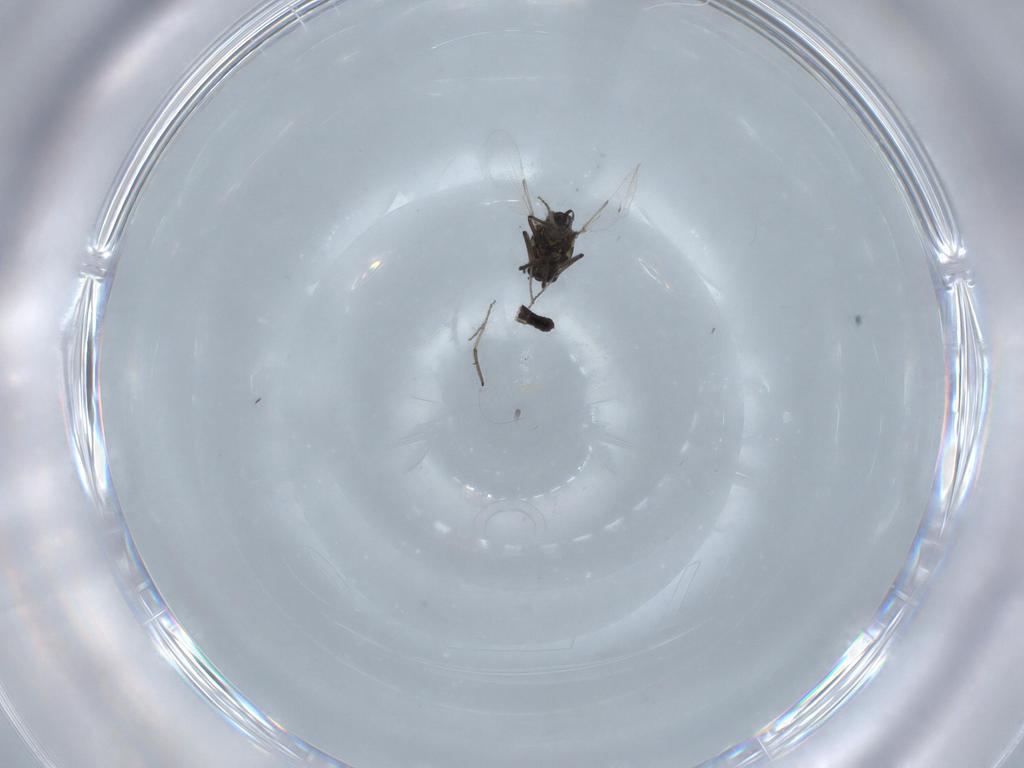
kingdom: Animalia
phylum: Arthropoda
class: Insecta
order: Diptera
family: Ceratopogonidae
